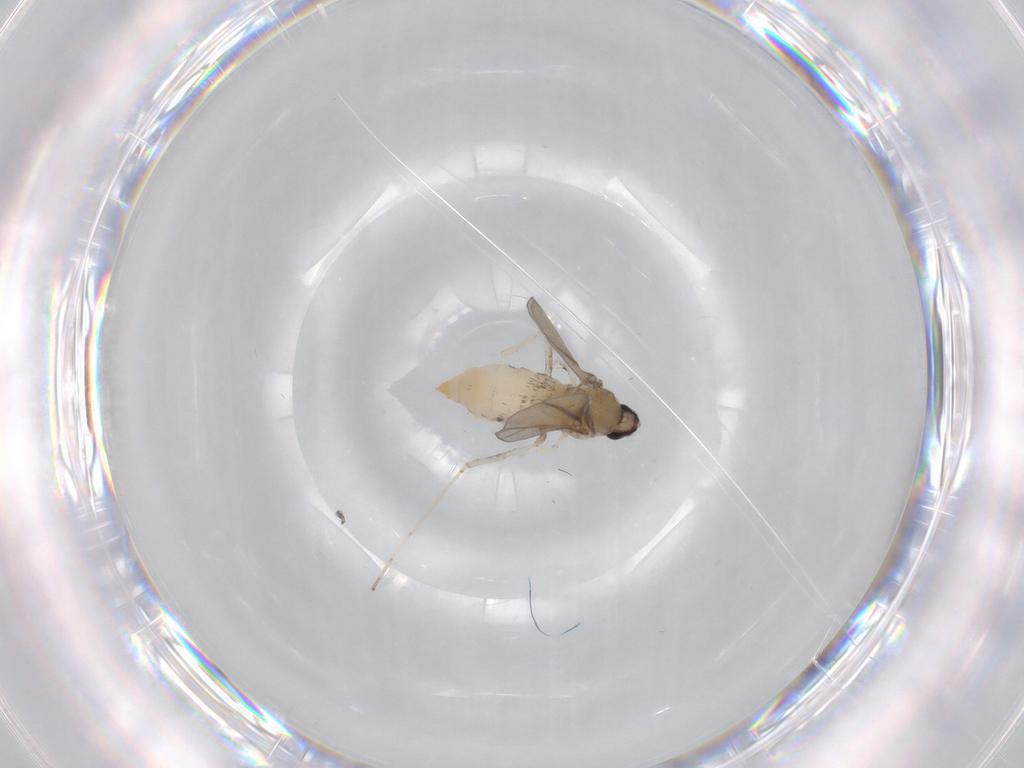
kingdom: Animalia
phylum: Arthropoda
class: Insecta
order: Diptera
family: Cecidomyiidae
